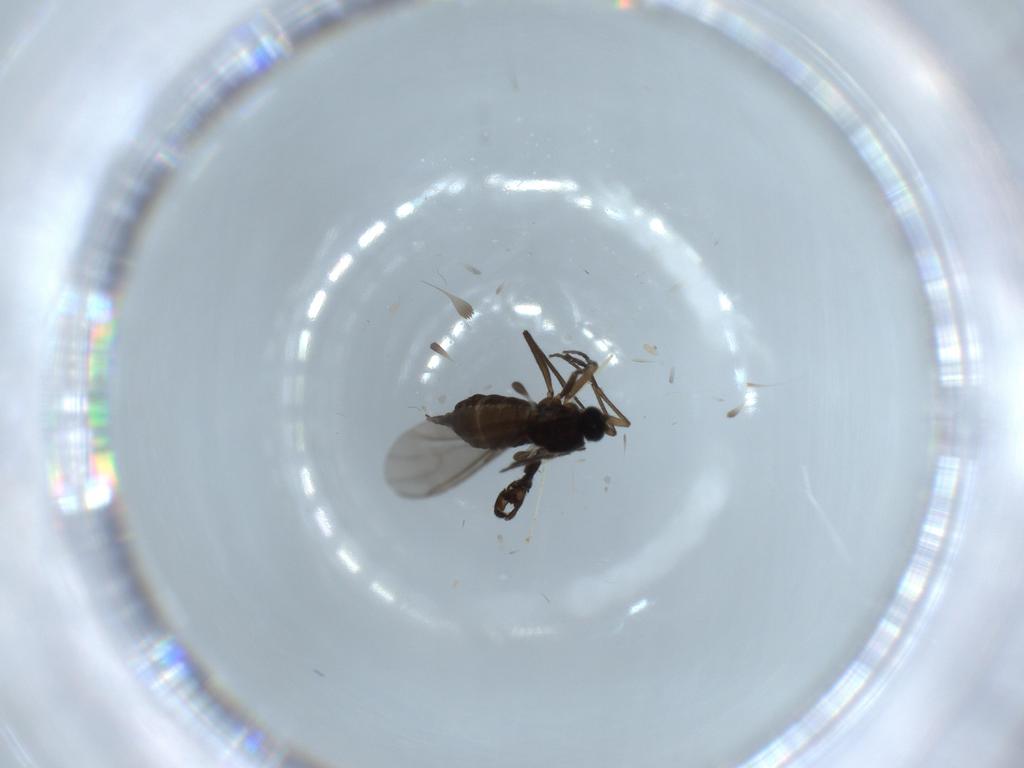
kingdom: Animalia
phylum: Arthropoda
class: Insecta
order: Diptera
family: Sciaridae
